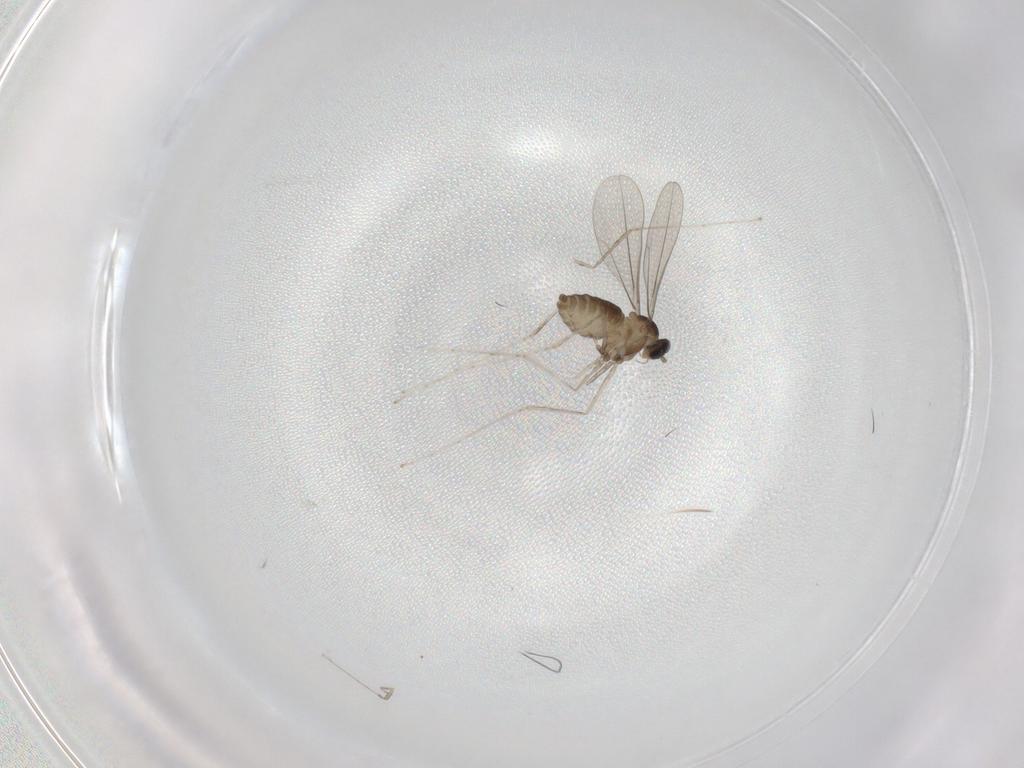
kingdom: Animalia
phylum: Arthropoda
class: Insecta
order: Diptera
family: Cecidomyiidae
